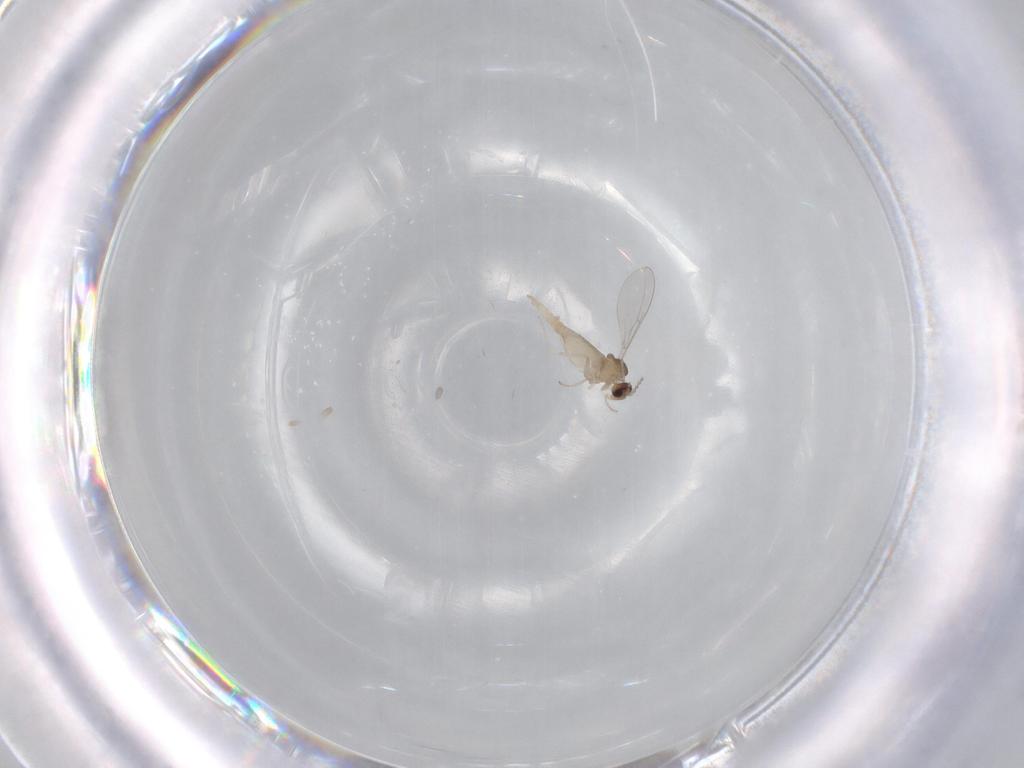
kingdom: Animalia
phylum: Arthropoda
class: Insecta
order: Diptera
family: Cecidomyiidae
